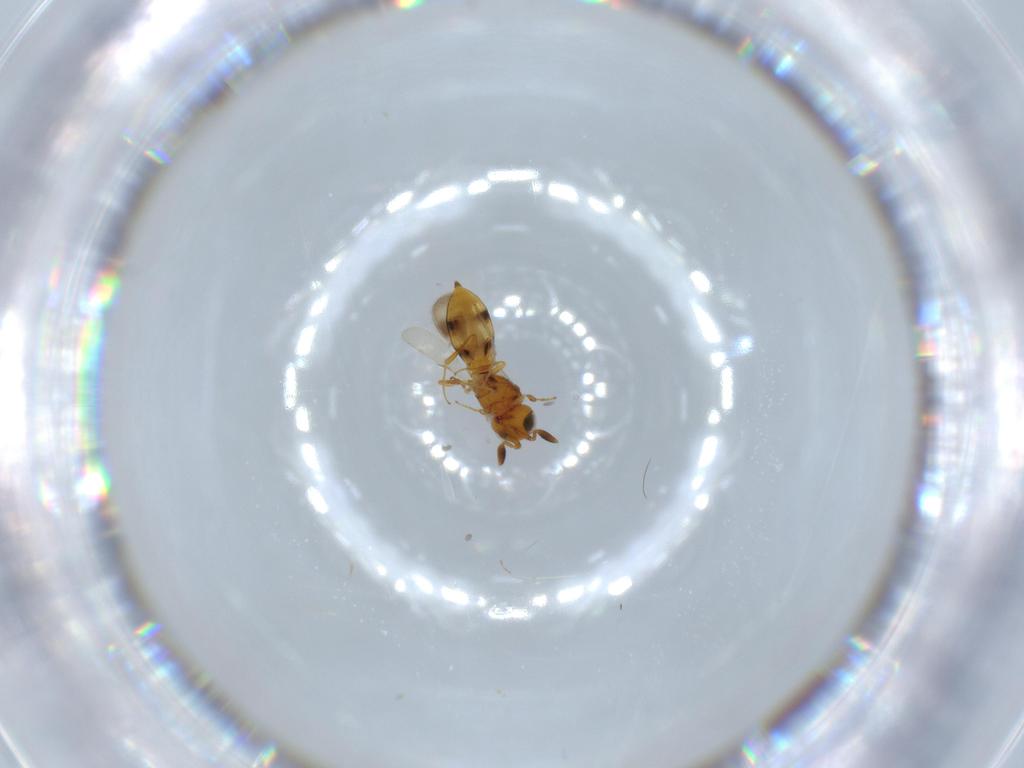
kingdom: Animalia
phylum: Arthropoda
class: Insecta
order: Hymenoptera
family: Scelionidae
